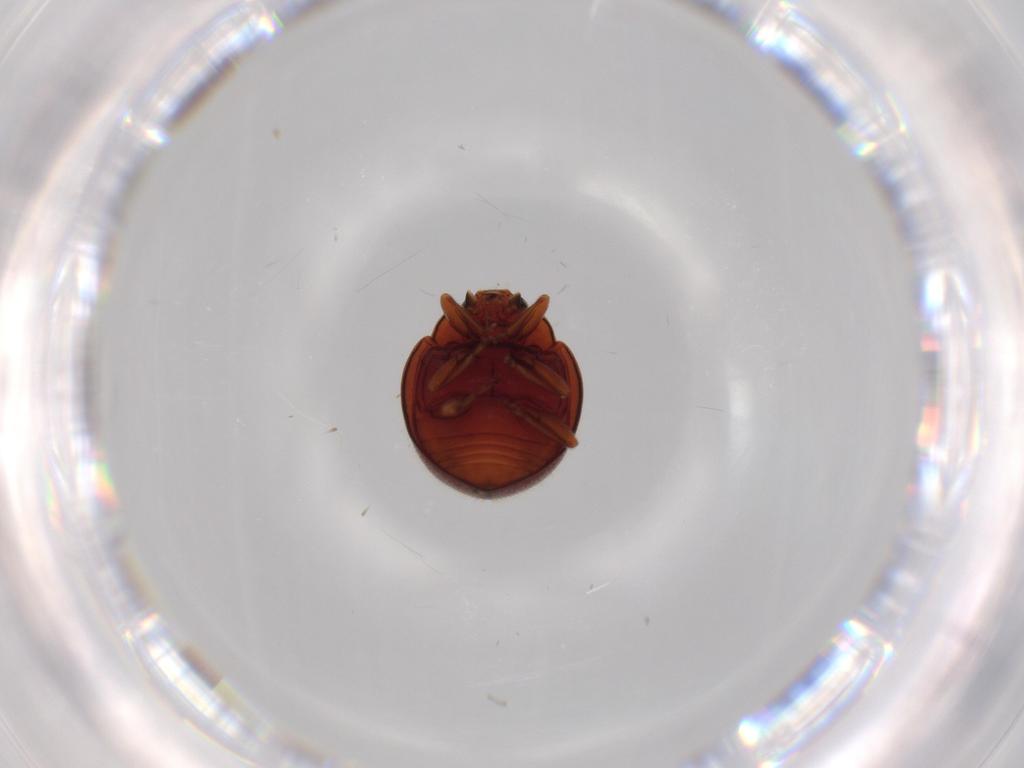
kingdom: Animalia
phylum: Arthropoda
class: Insecta
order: Coleoptera
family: Coccinellidae
